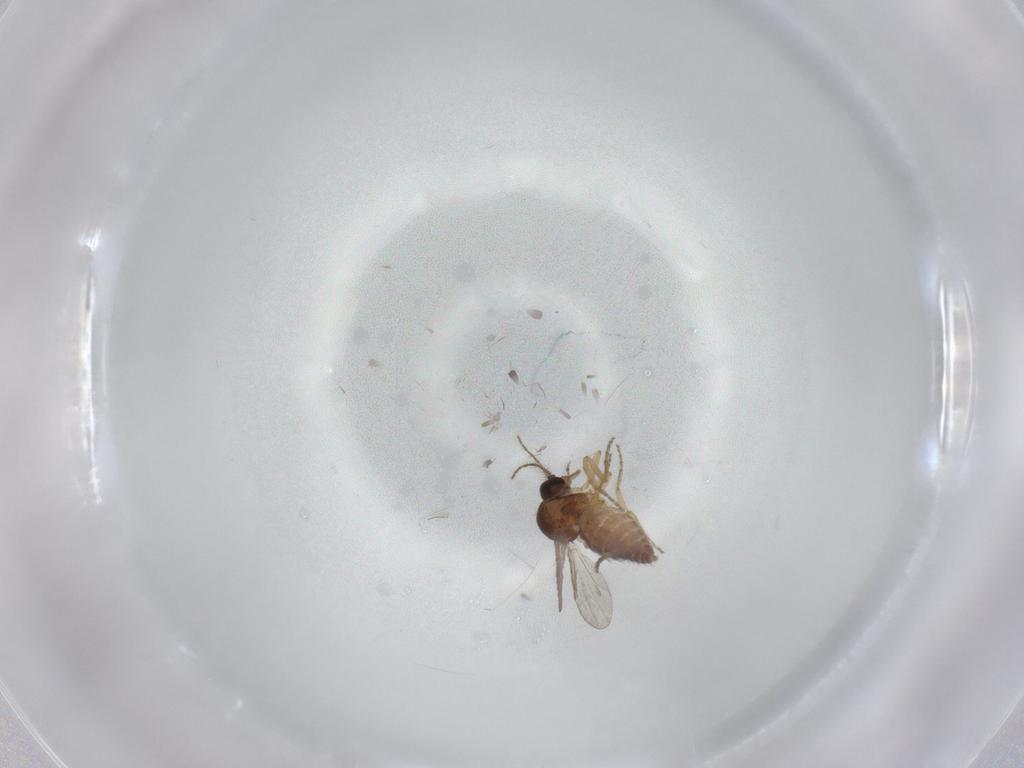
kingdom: Animalia
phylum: Arthropoda
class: Insecta
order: Diptera
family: Ceratopogonidae
